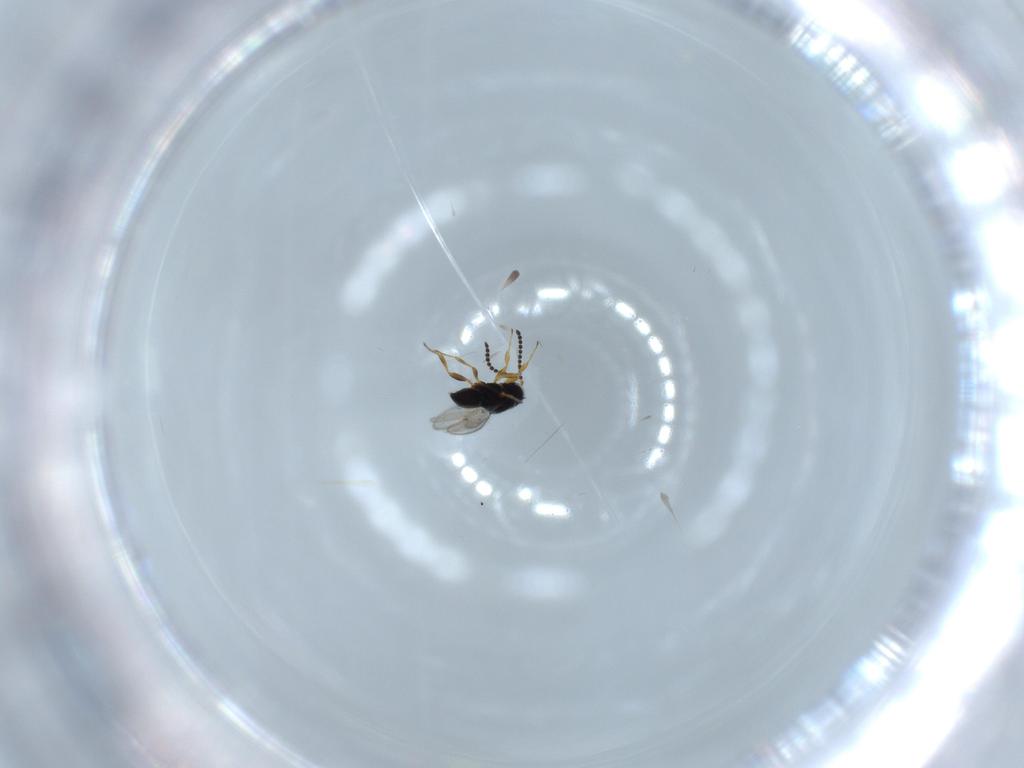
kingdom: Animalia
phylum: Arthropoda
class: Insecta
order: Hymenoptera
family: Scelionidae
